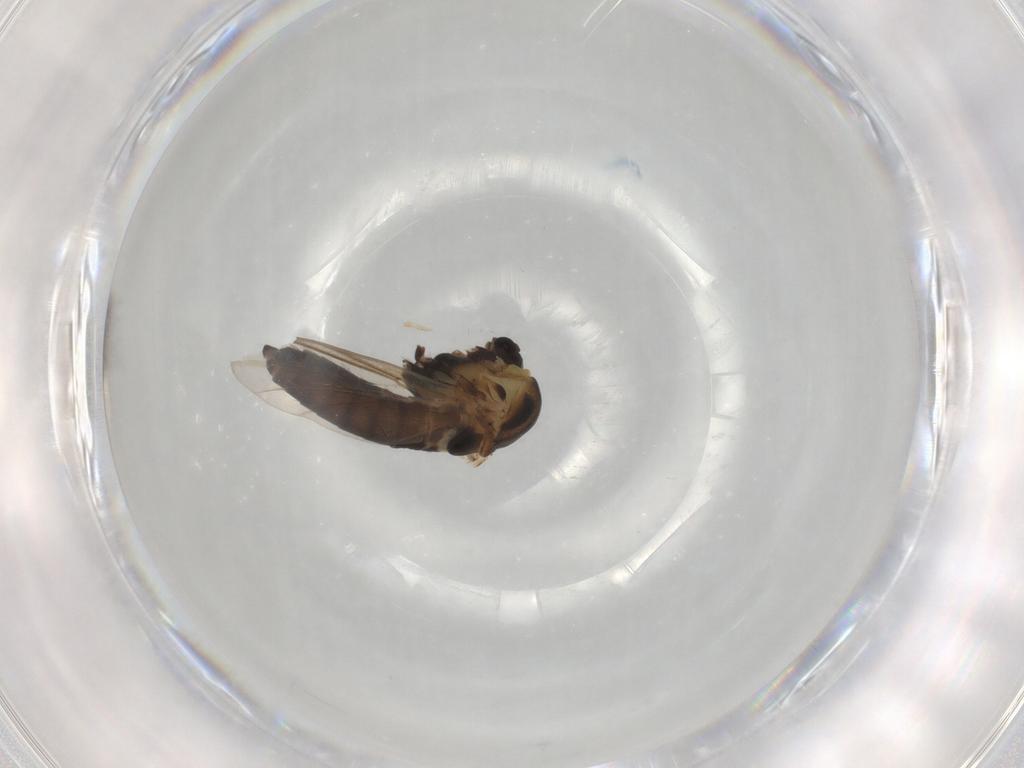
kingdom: Animalia
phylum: Arthropoda
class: Insecta
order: Diptera
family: Chironomidae
